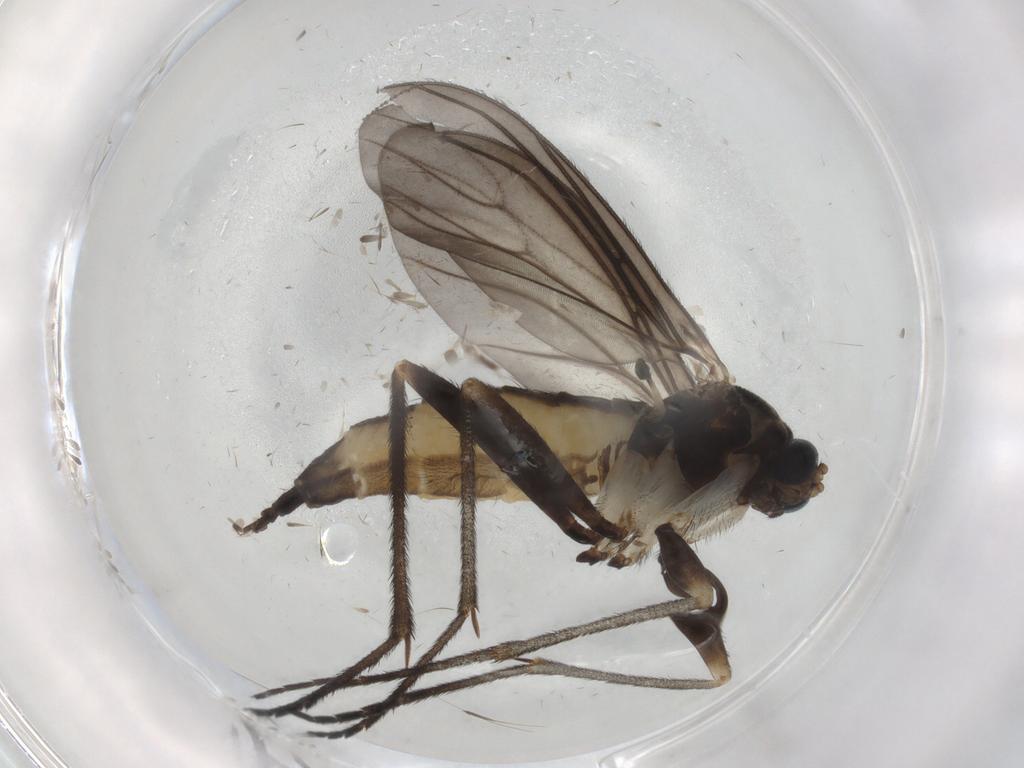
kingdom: Animalia
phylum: Arthropoda
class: Insecta
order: Diptera
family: Sciaridae
